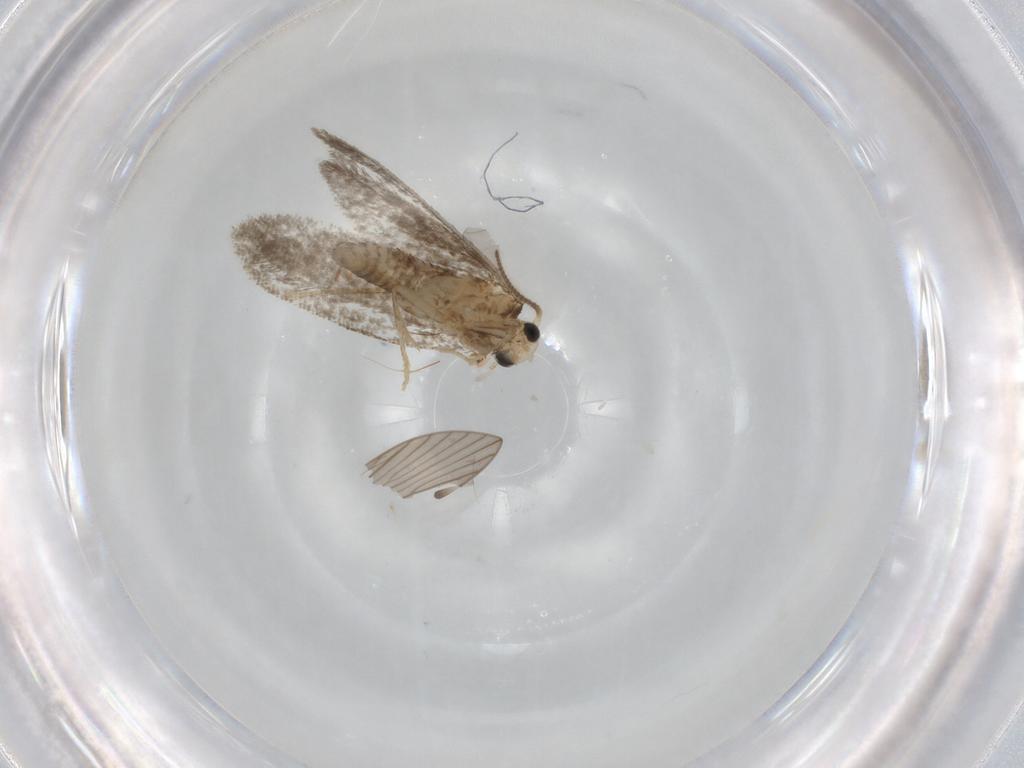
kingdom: Animalia
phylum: Arthropoda
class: Insecta
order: Lepidoptera
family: Psychidae
